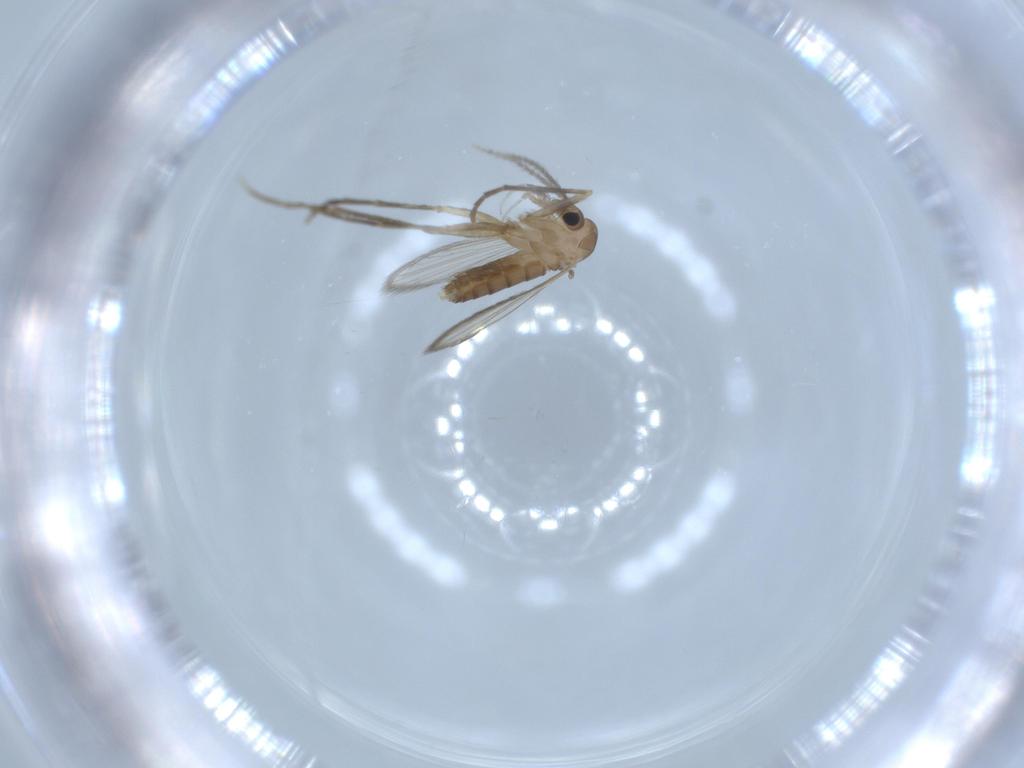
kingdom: Animalia
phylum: Arthropoda
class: Insecta
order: Diptera
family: Psychodidae
